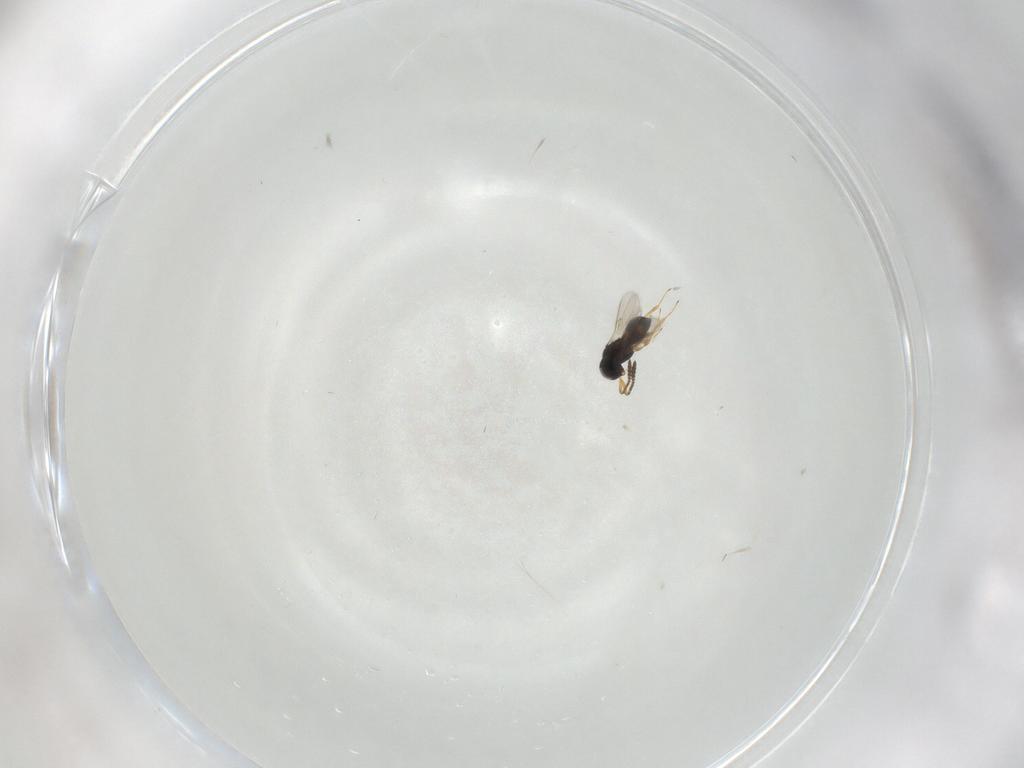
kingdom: Animalia
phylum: Arthropoda
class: Insecta
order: Hymenoptera
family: Scelionidae
